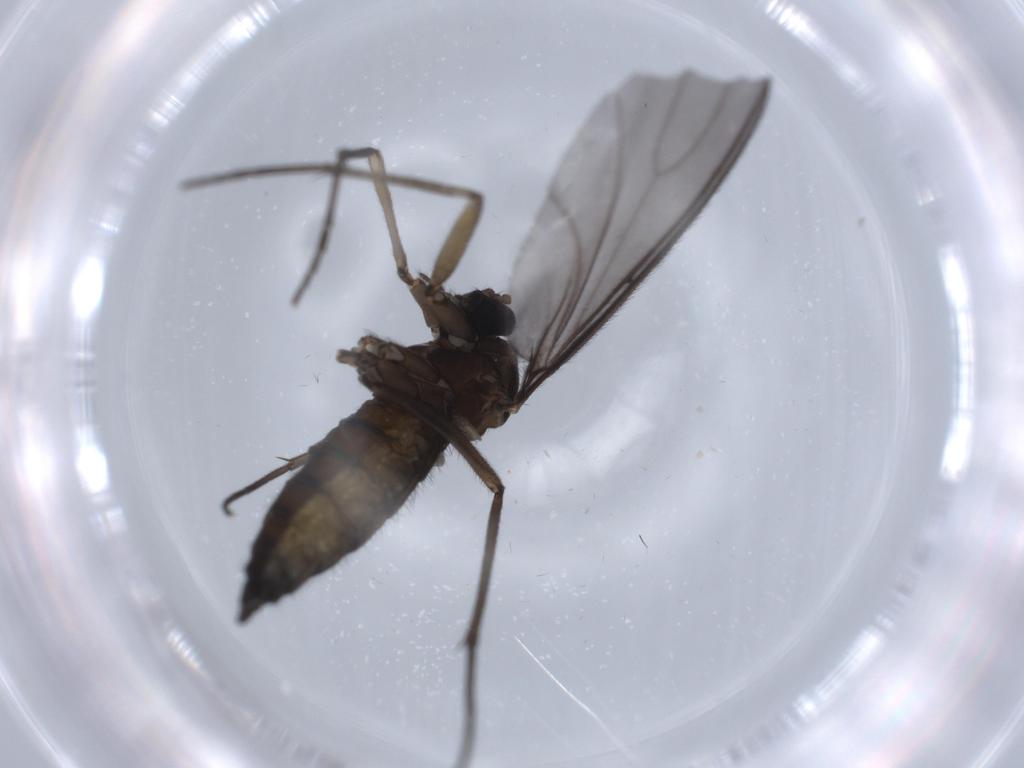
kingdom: Animalia
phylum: Arthropoda
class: Insecta
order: Diptera
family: Sciaridae
